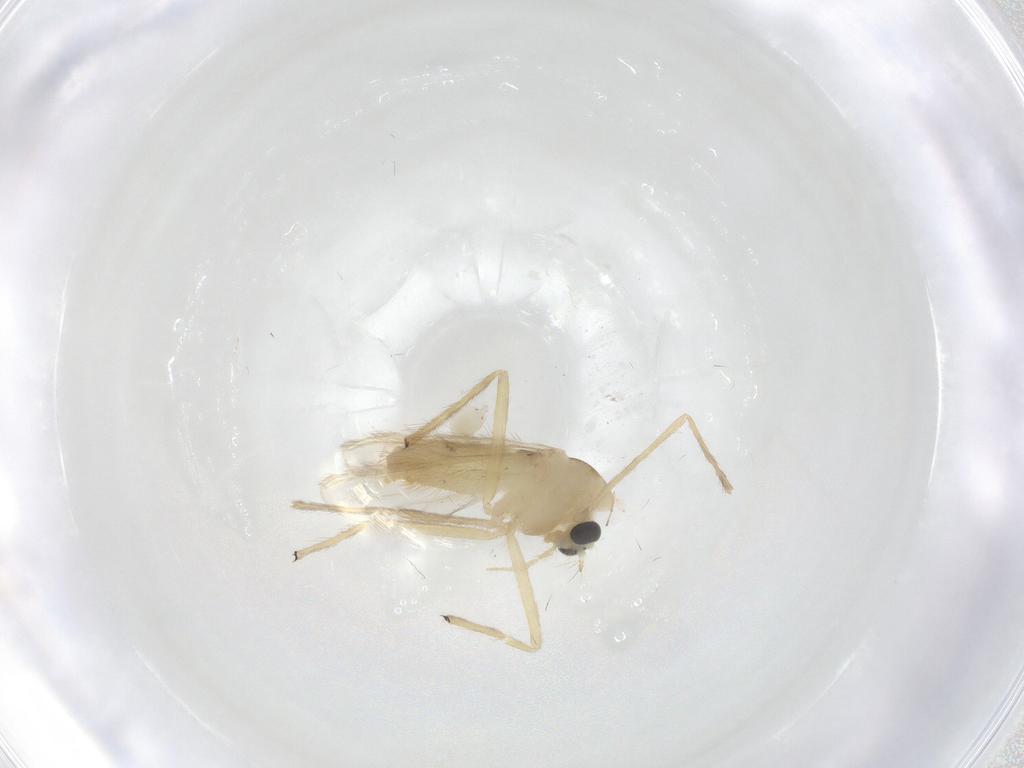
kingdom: Animalia
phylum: Arthropoda
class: Insecta
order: Diptera
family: Chironomidae
